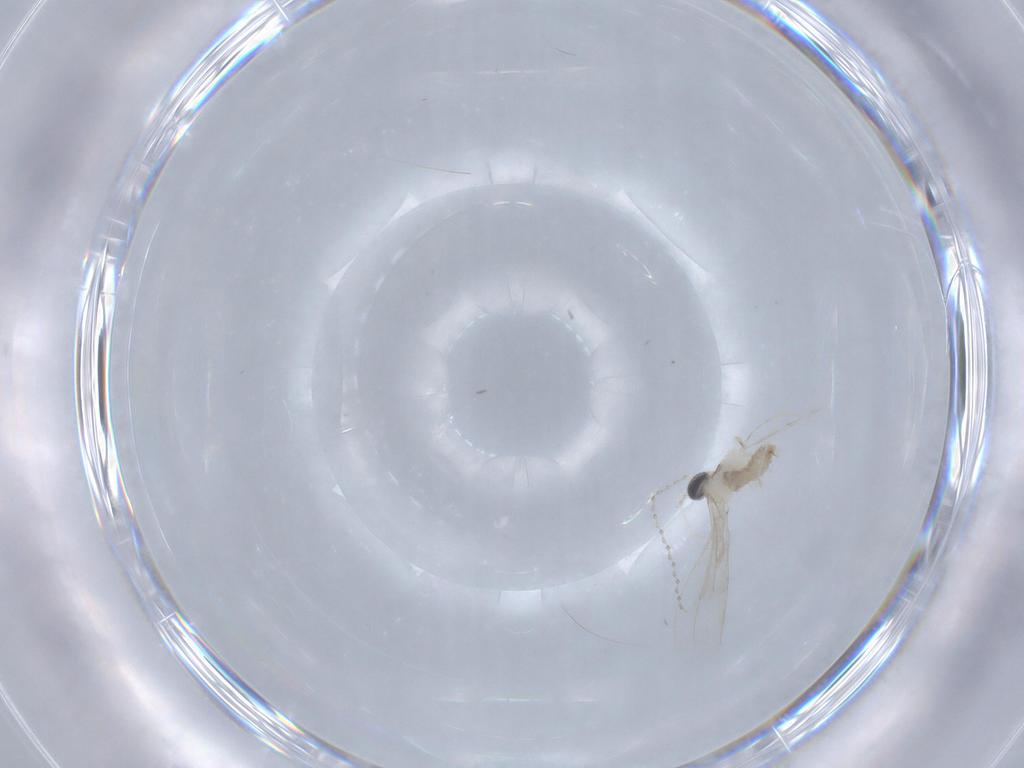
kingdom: Animalia
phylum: Arthropoda
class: Insecta
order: Diptera
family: Cecidomyiidae
